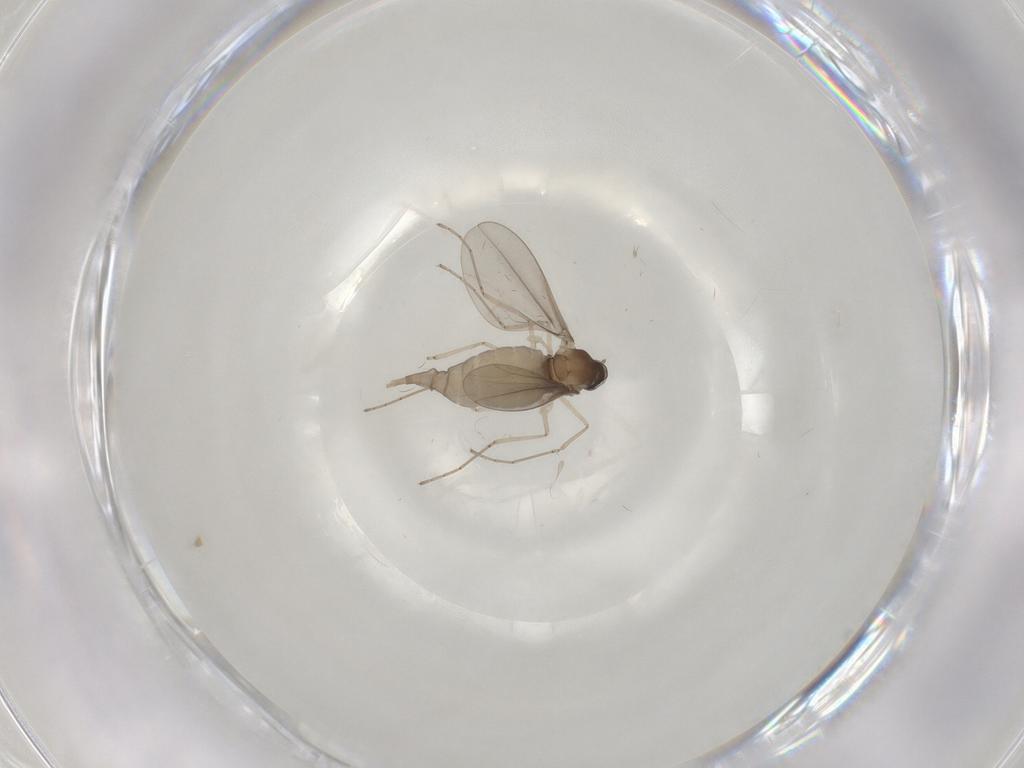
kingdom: Animalia
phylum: Arthropoda
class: Insecta
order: Diptera
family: Cecidomyiidae
